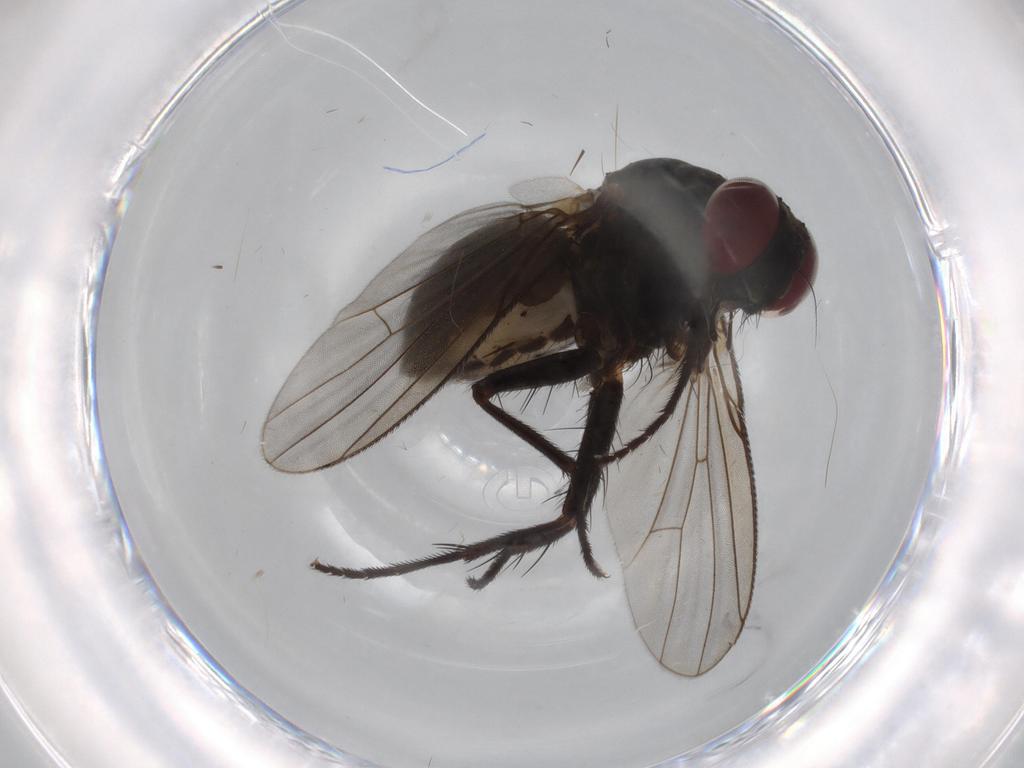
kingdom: Animalia
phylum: Arthropoda
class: Insecta
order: Diptera
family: Muscidae
